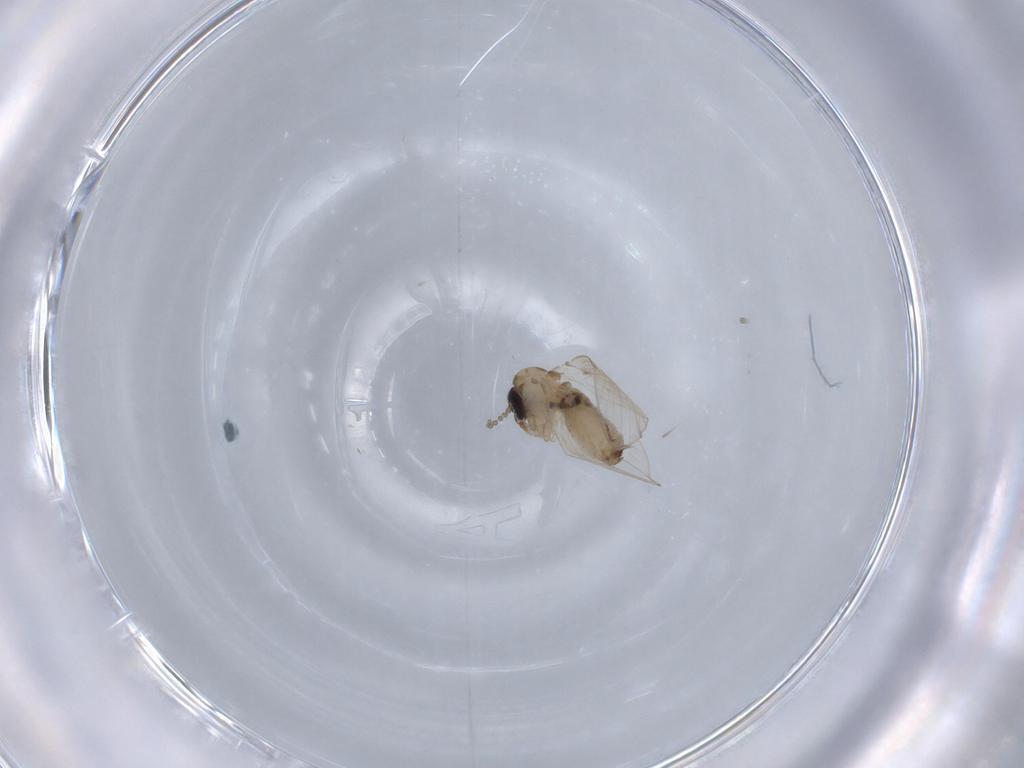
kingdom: Animalia
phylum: Arthropoda
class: Insecta
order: Diptera
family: Psychodidae
